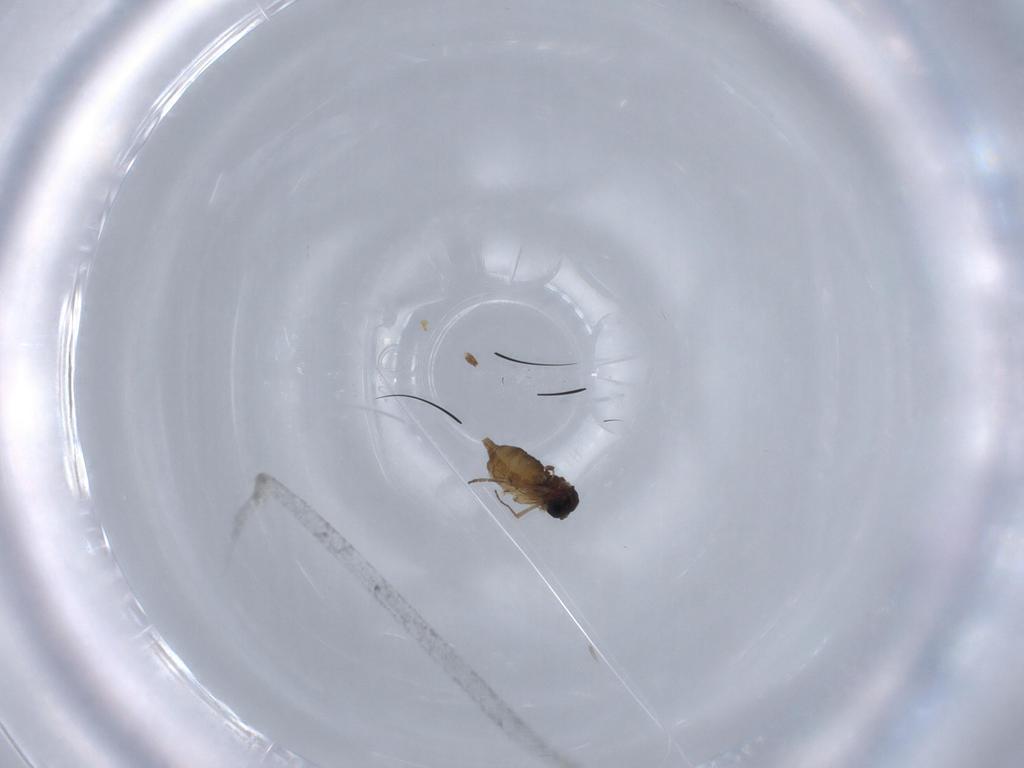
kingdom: Animalia
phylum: Arthropoda
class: Insecta
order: Diptera
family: Sciaridae
